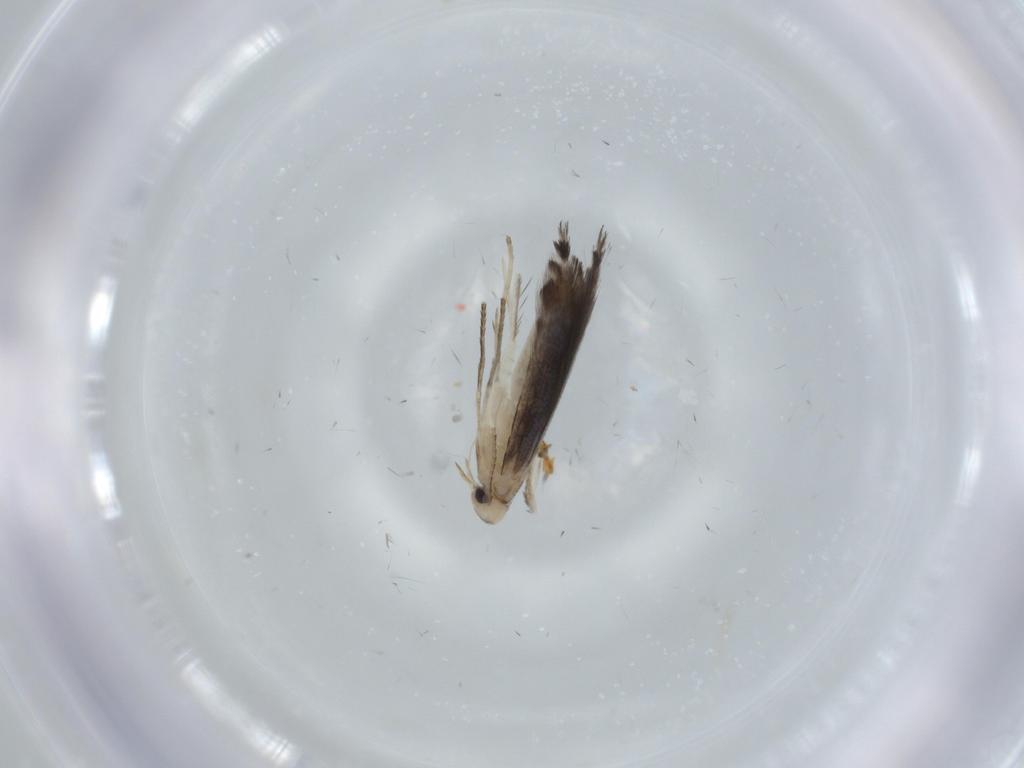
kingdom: Animalia
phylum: Arthropoda
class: Insecta
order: Lepidoptera
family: Gracillariidae
